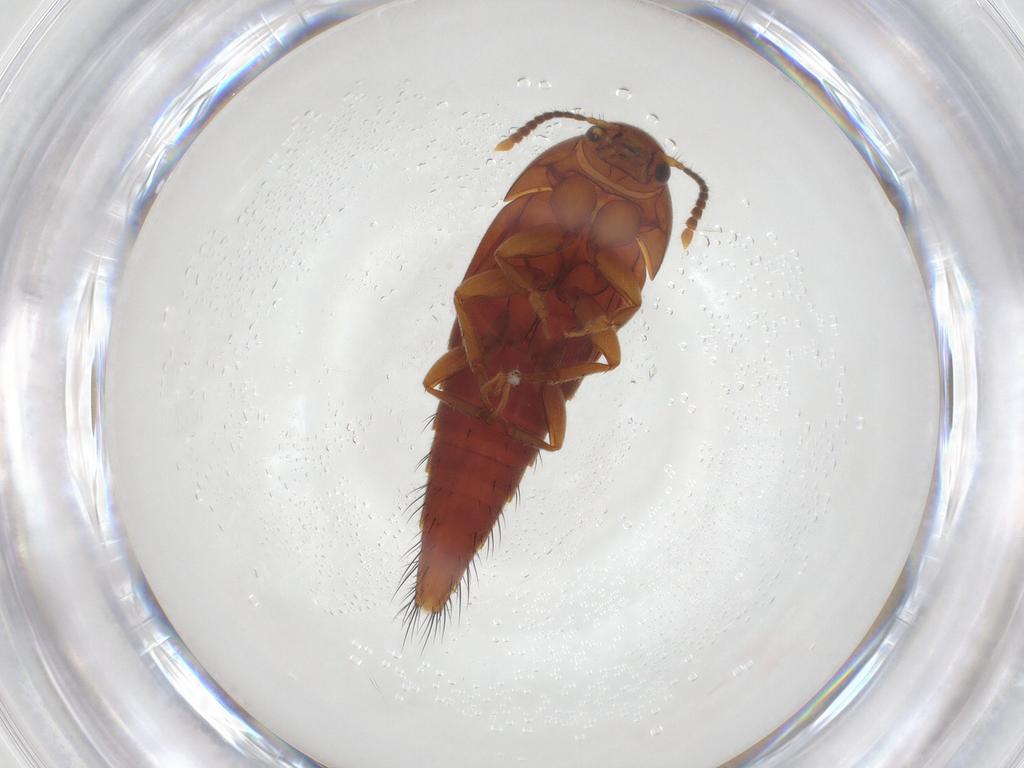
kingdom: Animalia
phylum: Arthropoda
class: Insecta
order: Coleoptera
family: Staphylinidae
